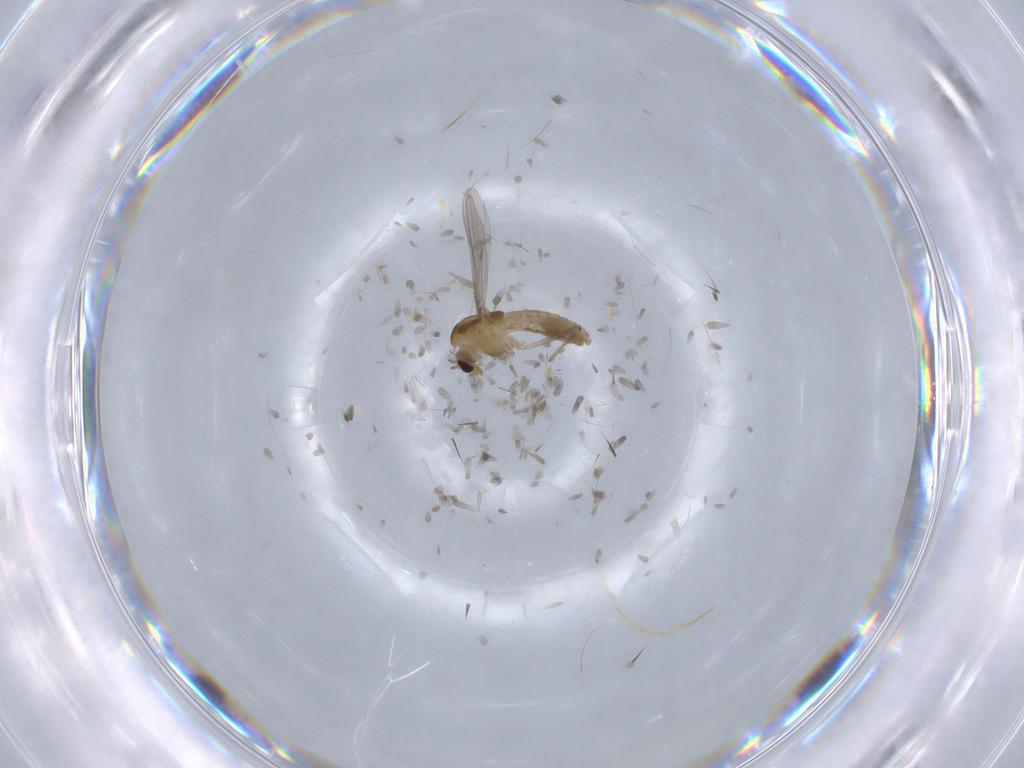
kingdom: Animalia
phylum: Arthropoda
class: Insecta
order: Diptera
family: Chironomidae
